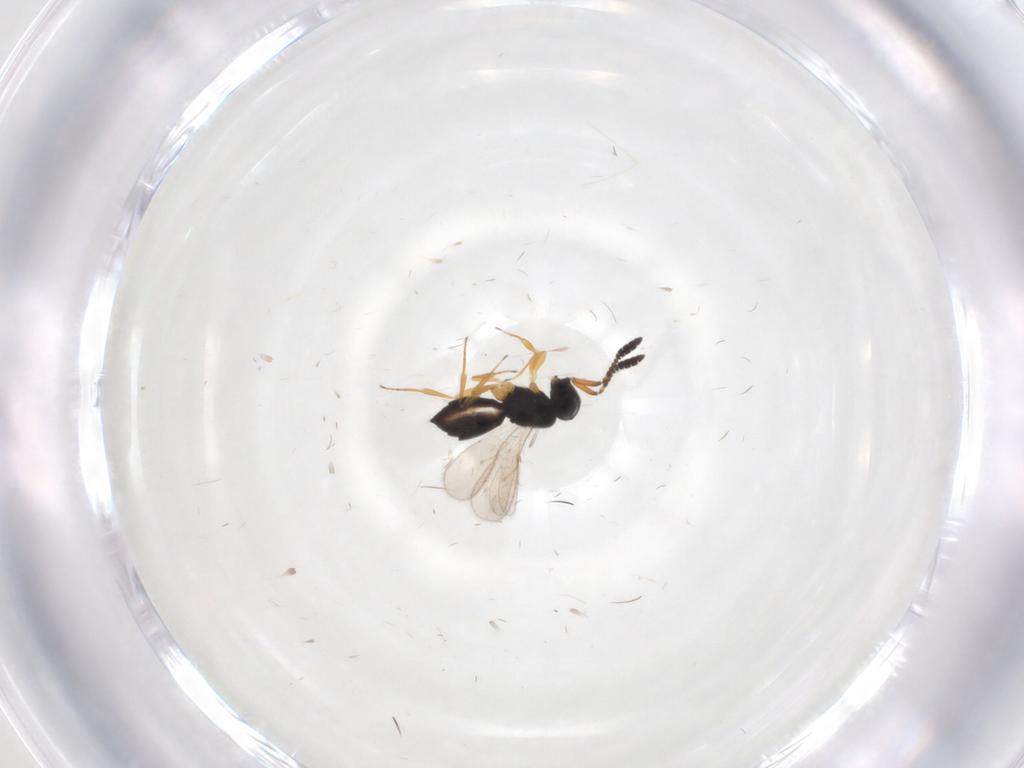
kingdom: Animalia
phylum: Arthropoda
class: Insecta
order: Hymenoptera
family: Scelionidae
